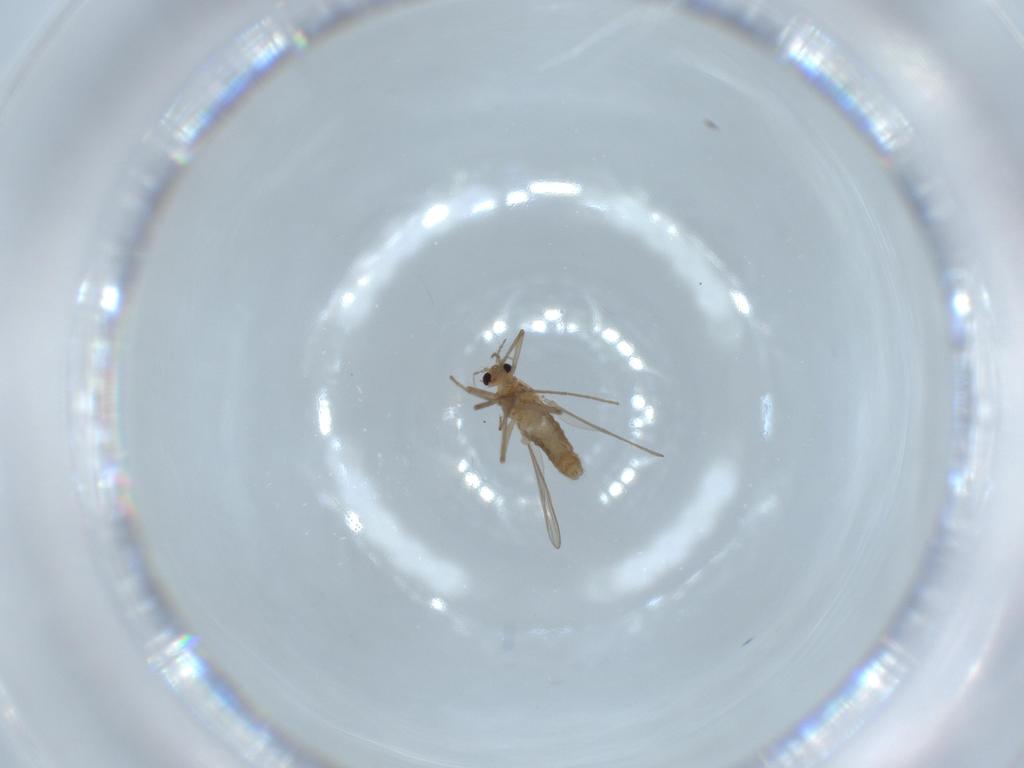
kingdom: Animalia
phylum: Arthropoda
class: Insecta
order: Diptera
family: Chironomidae
